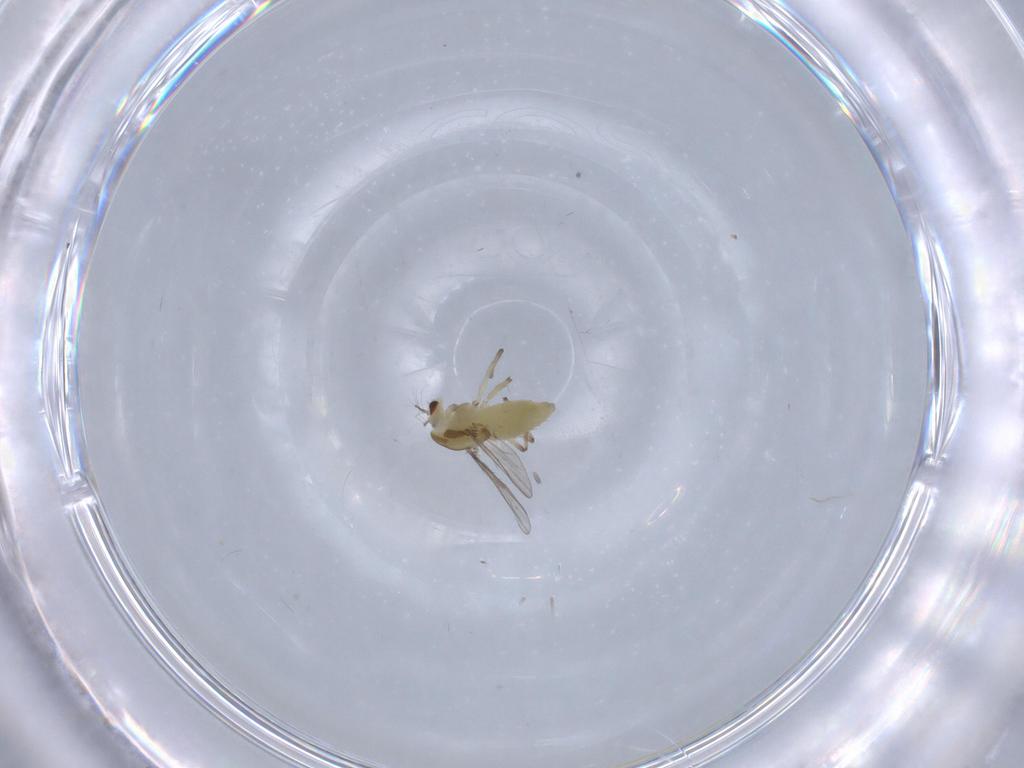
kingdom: Animalia
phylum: Arthropoda
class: Insecta
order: Diptera
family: Chironomidae
